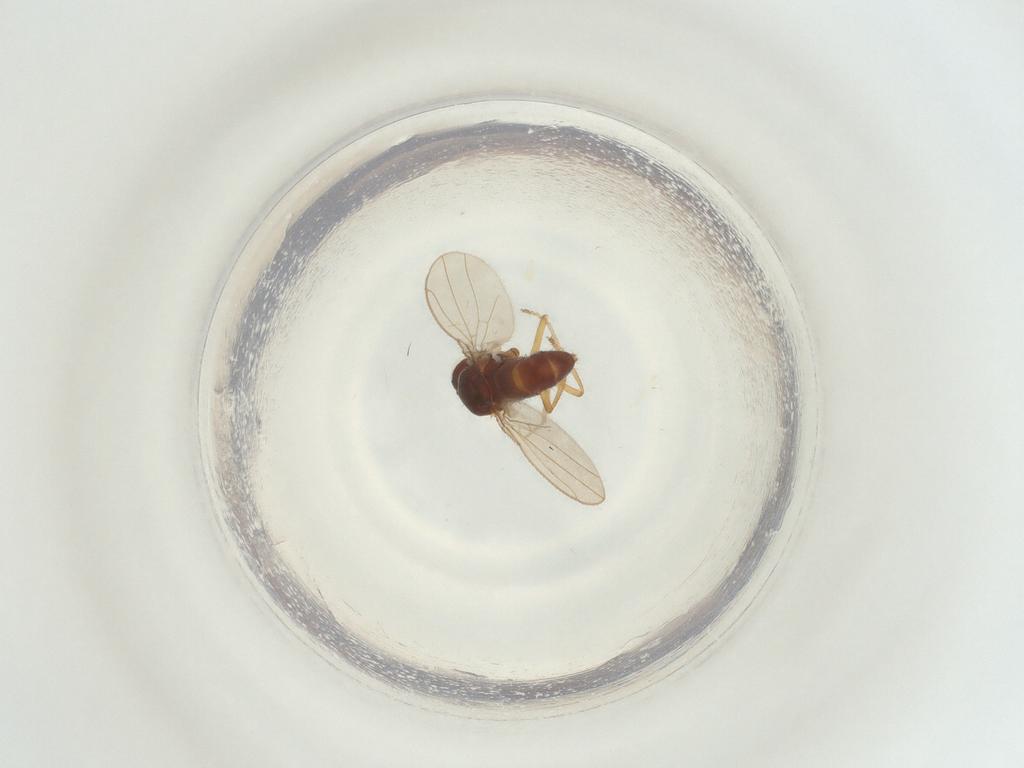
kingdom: Animalia
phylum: Arthropoda
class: Insecta
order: Diptera
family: Ephydridae
